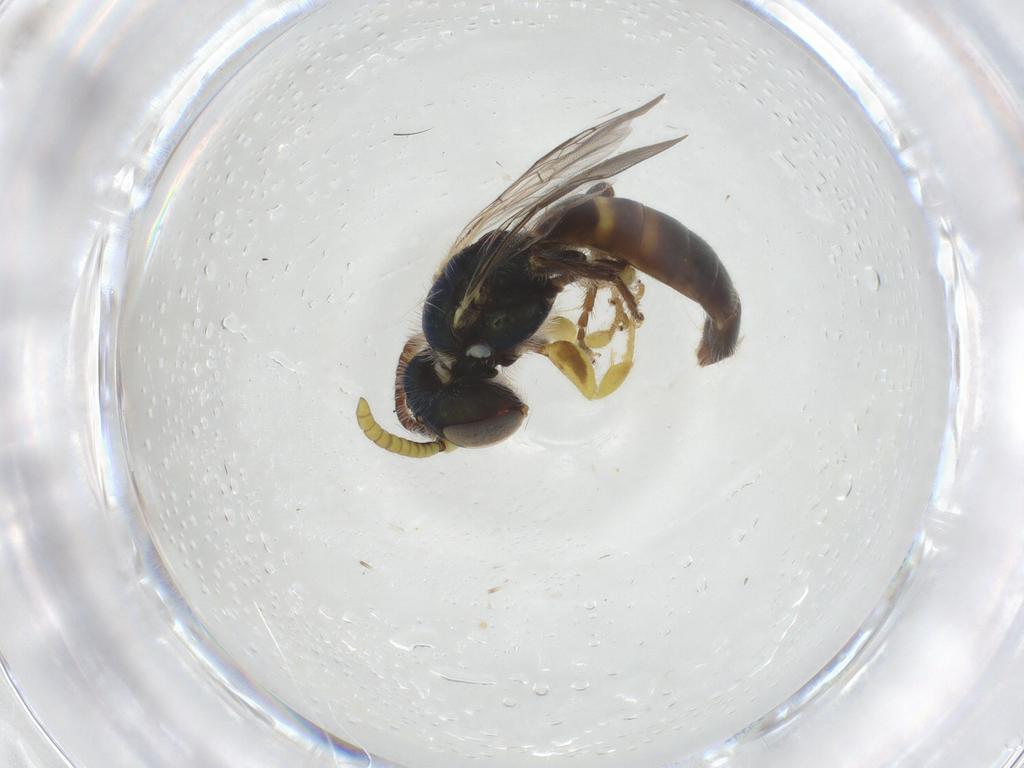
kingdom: Animalia
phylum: Arthropoda
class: Insecta
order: Hymenoptera
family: Andrenidae
